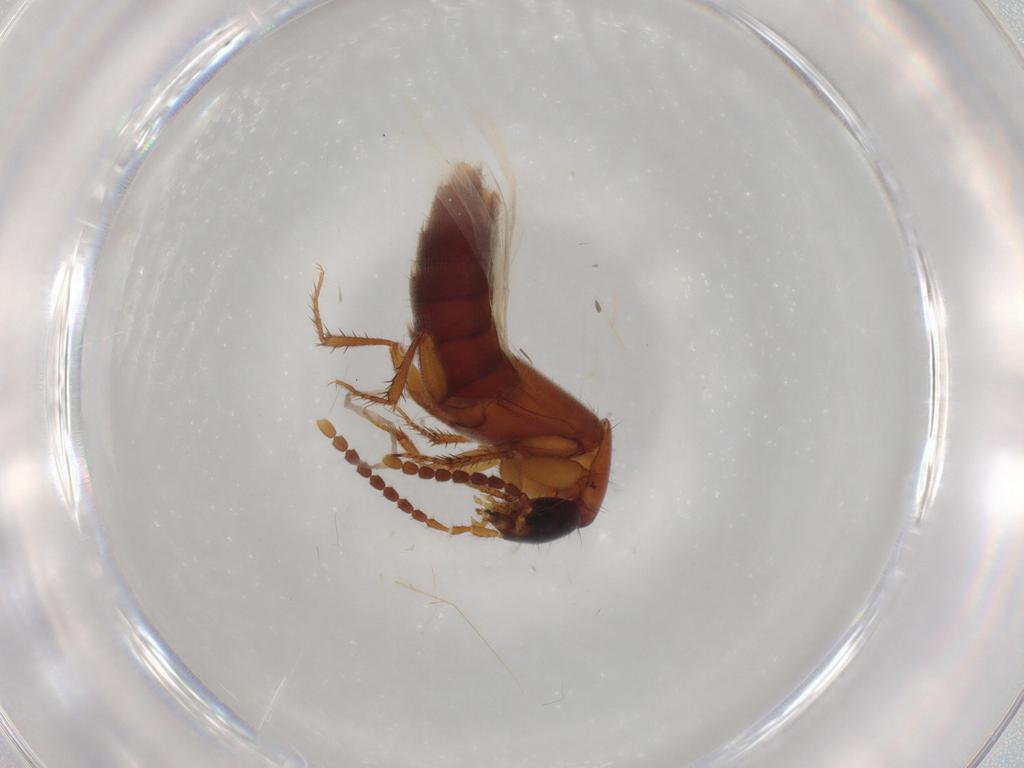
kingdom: Animalia
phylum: Arthropoda
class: Insecta
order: Coleoptera
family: Staphylinidae
